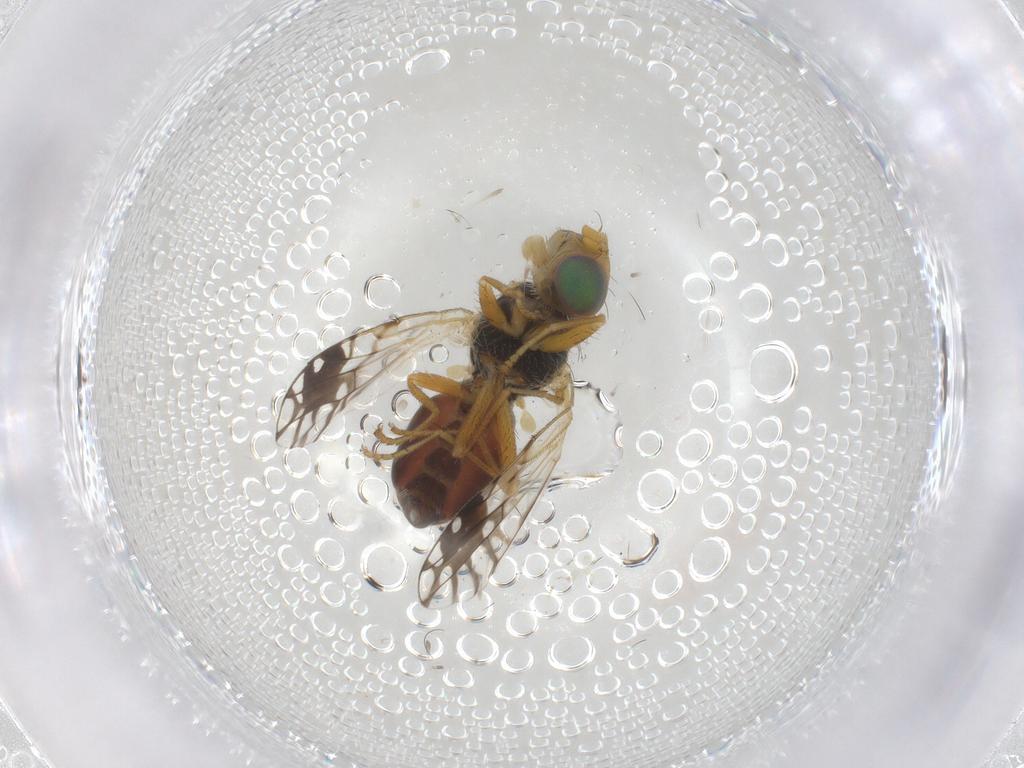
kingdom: Animalia
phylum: Arthropoda
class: Insecta
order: Diptera
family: Tephritidae
